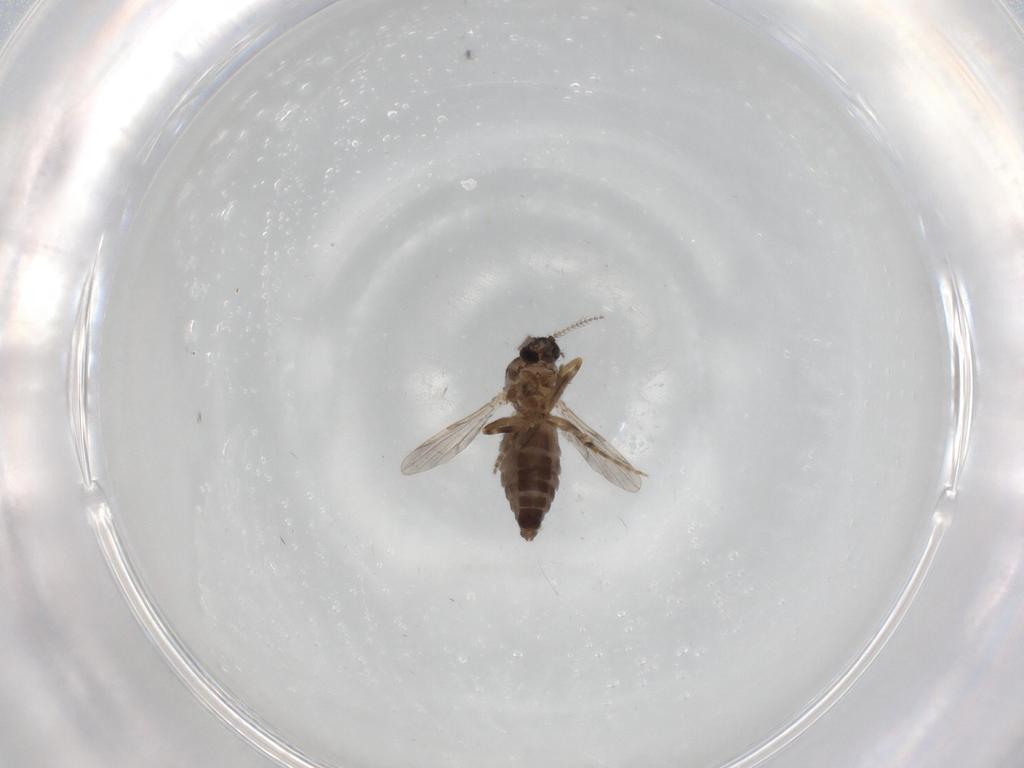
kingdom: Animalia
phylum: Arthropoda
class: Insecta
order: Diptera
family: Ceratopogonidae
